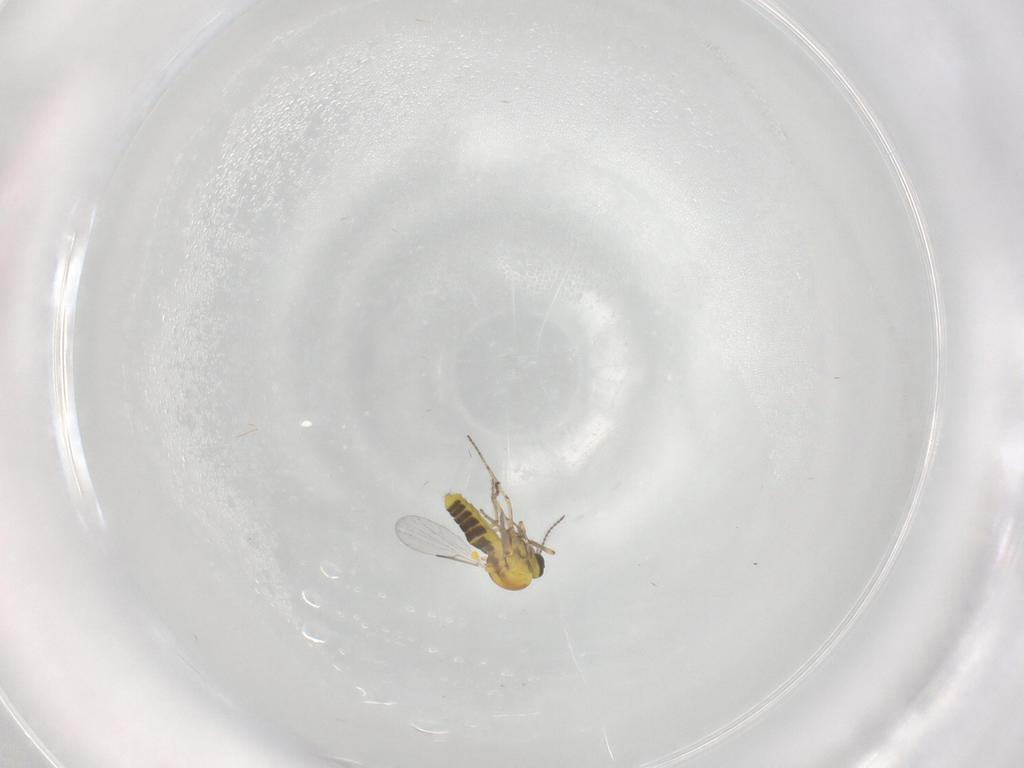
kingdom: Animalia
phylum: Arthropoda
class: Insecta
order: Diptera
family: Ceratopogonidae
